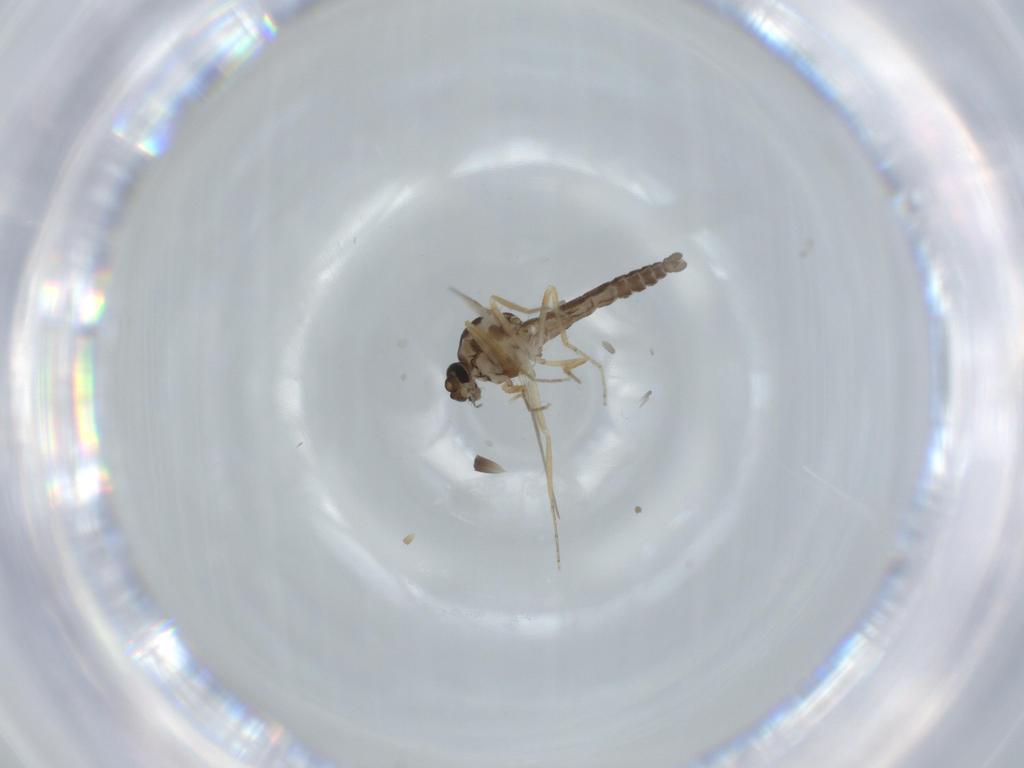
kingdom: Animalia
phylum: Arthropoda
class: Insecta
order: Diptera
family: Ceratopogonidae
